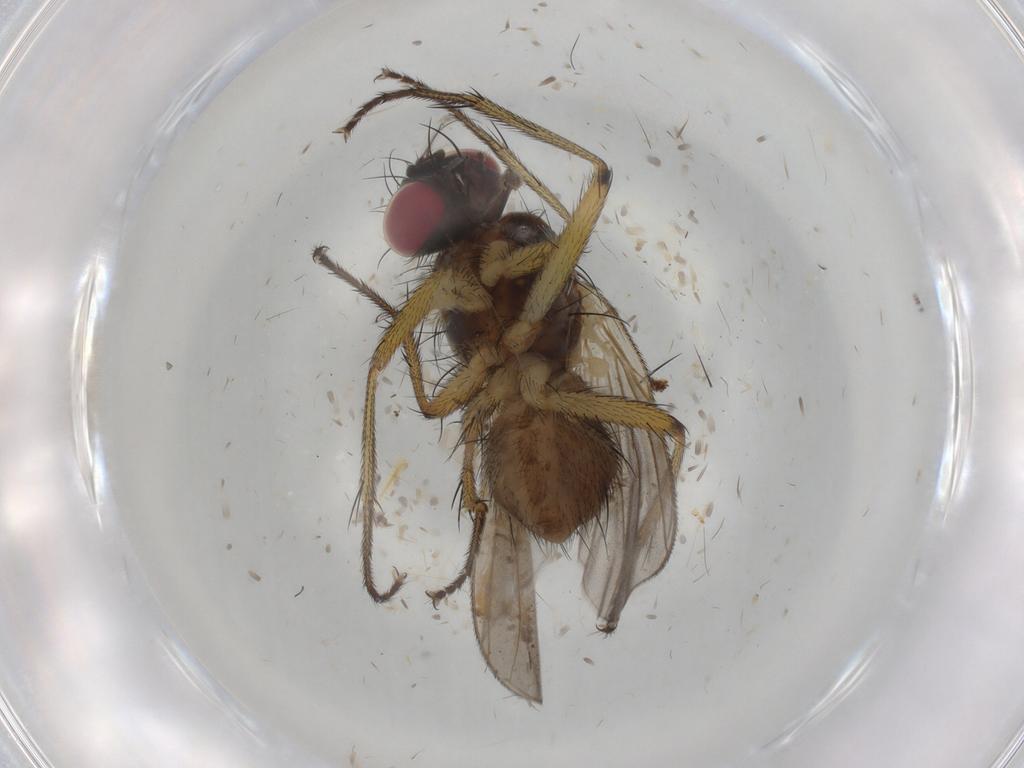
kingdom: Animalia
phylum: Arthropoda
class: Insecta
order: Diptera
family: Muscidae
